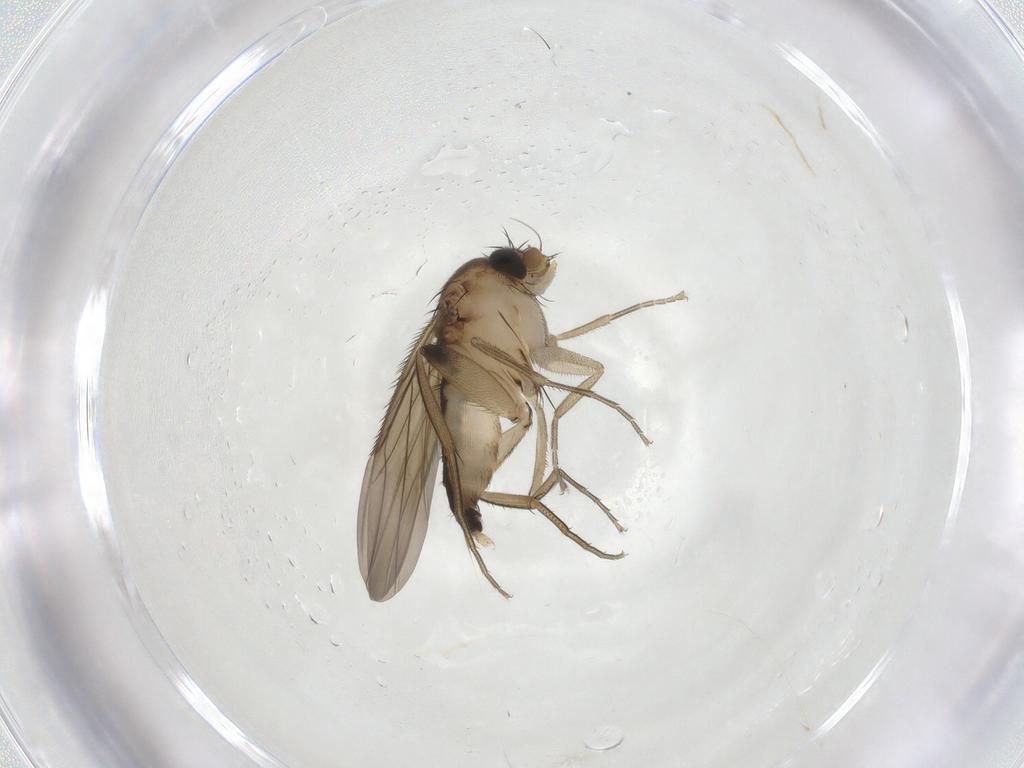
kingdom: Animalia
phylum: Arthropoda
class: Insecta
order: Diptera
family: Phoridae
